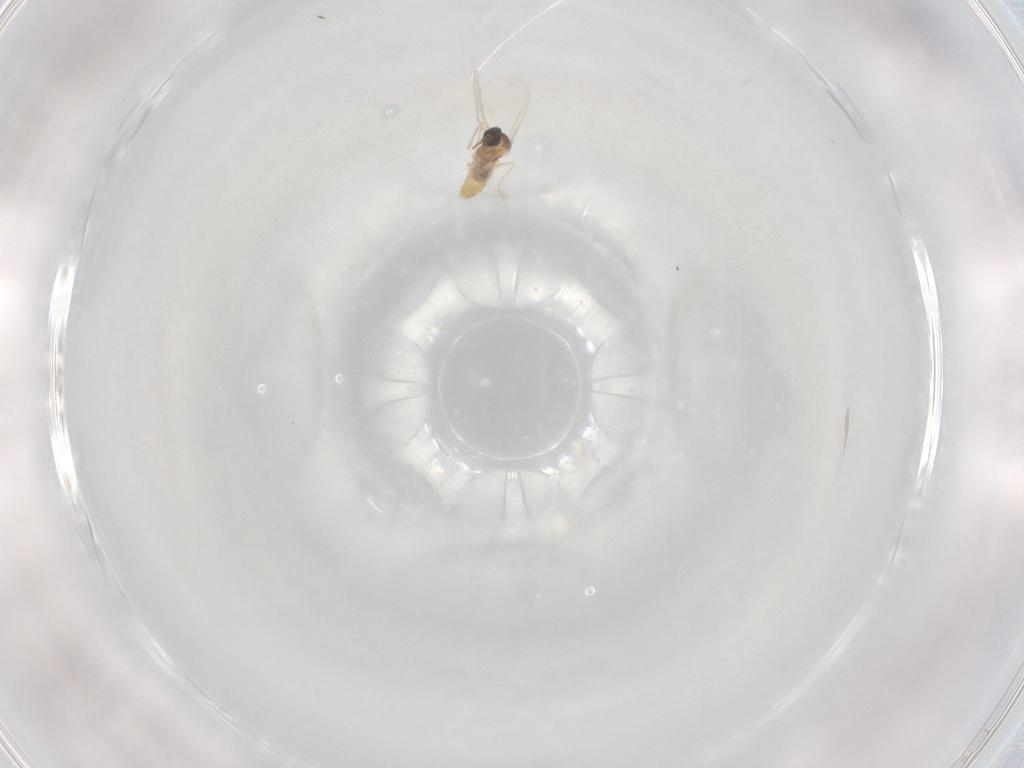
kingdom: Animalia
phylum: Arthropoda
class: Insecta
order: Diptera
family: Cecidomyiidae
